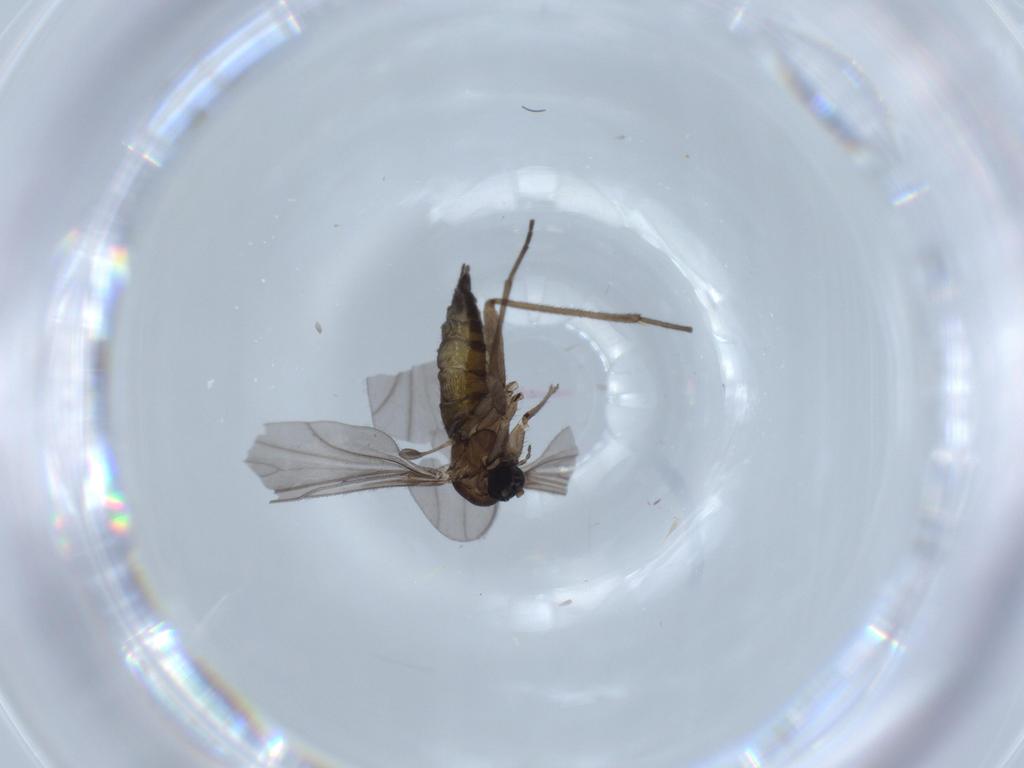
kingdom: Animalia
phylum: Arthropoda
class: Insecta
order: Diptera
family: Sciaridae
